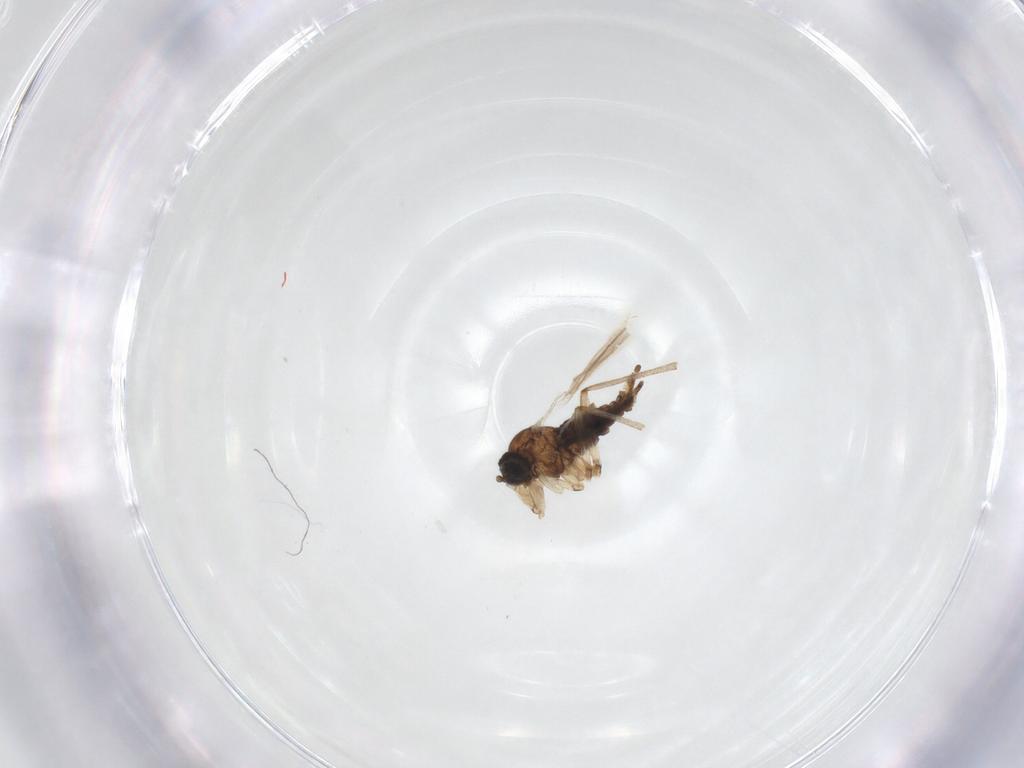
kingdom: Animalia
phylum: Arthropoda
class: Insecta
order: Diptera
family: Sciaridae
